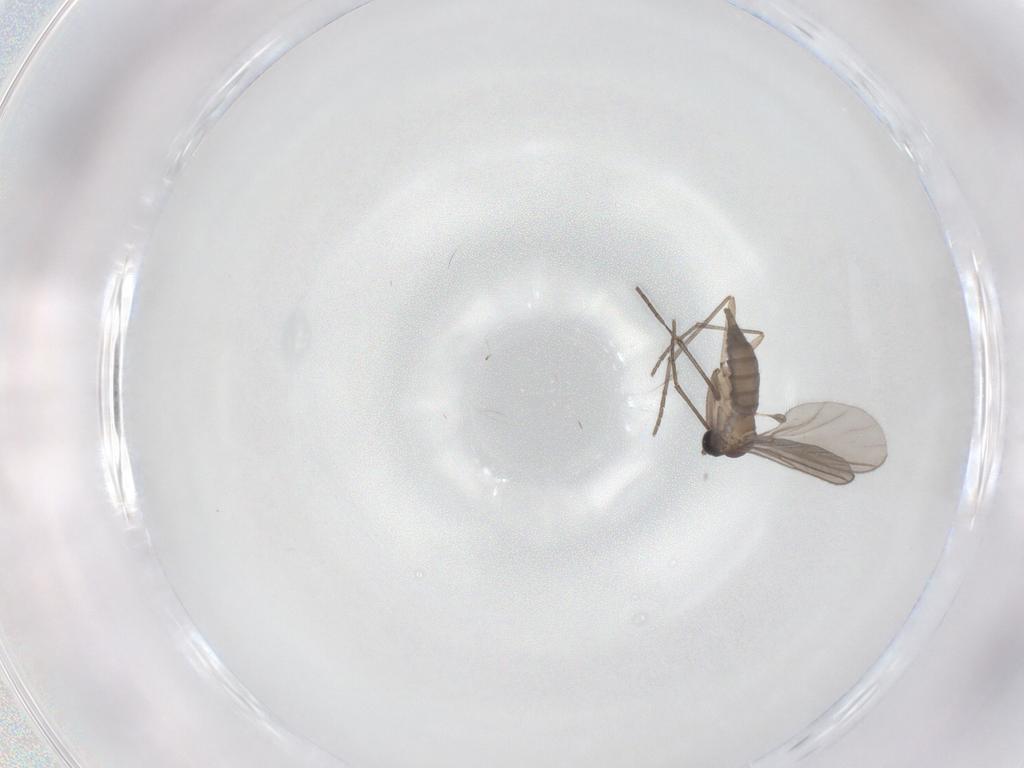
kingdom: Animalia
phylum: Arthropoda
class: Insecta
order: Diptera
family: Sciaridae
